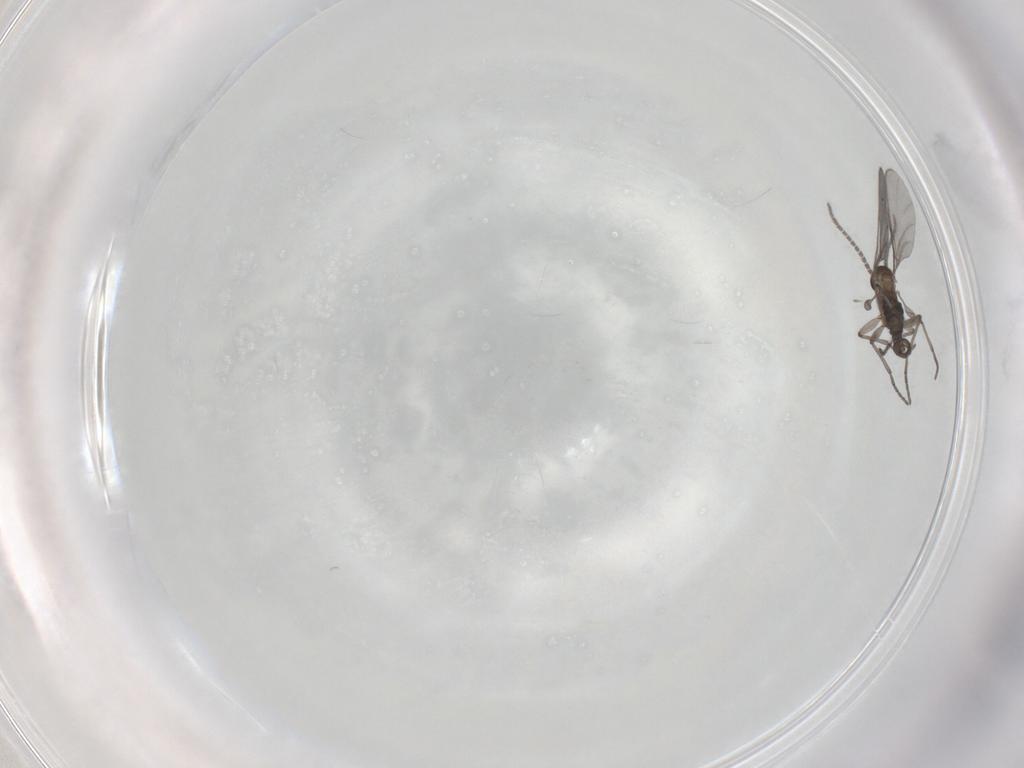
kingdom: Animalia
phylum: Arthropoda
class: Insecta
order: Diptera
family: Sciaridae
